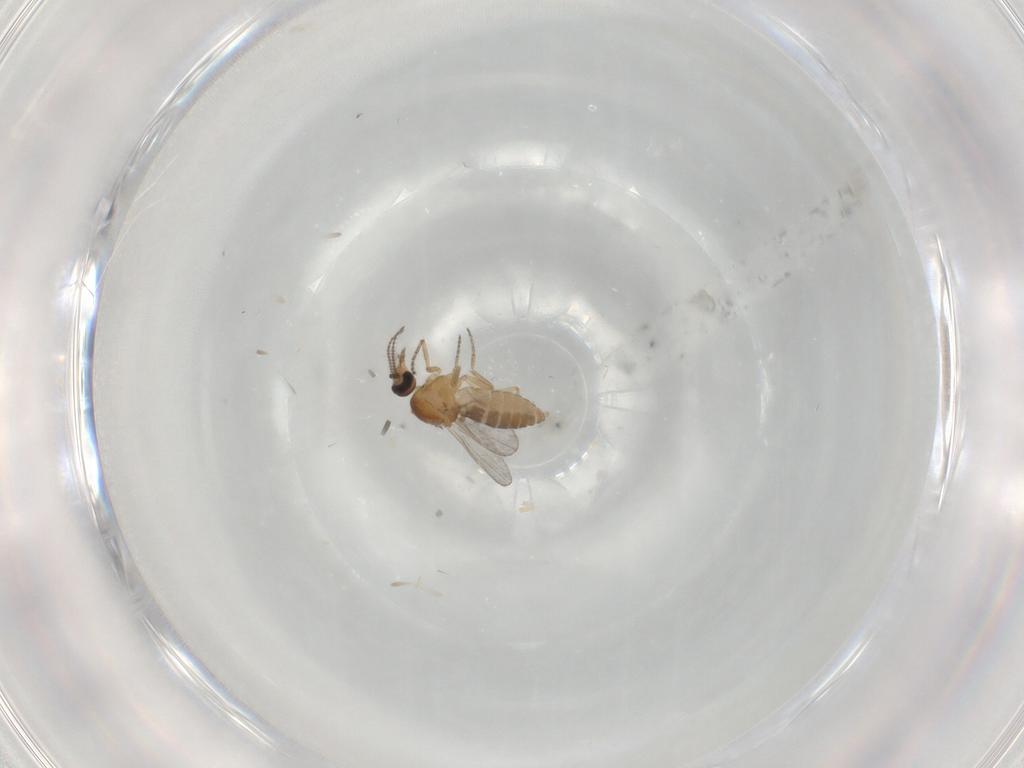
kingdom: Animalia
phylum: Arthropoda
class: Insecta
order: Diptera
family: Ceratopogonidae
